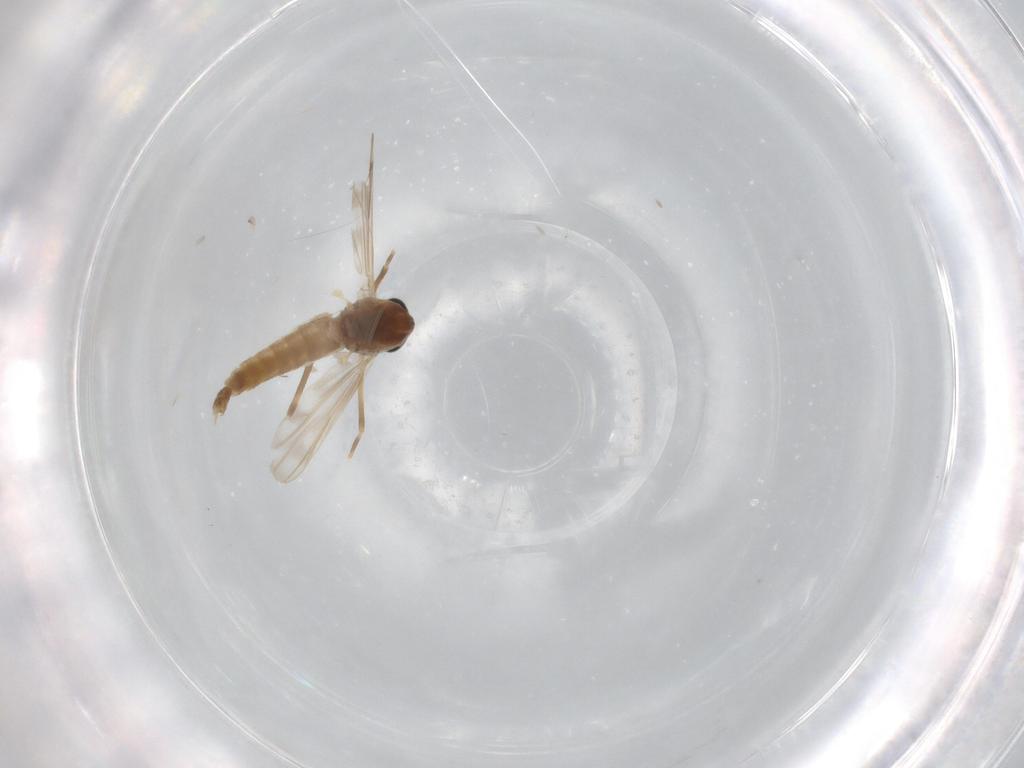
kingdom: Animalia
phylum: Arthropoda
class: Insecta
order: Diptera
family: Chironomidae
